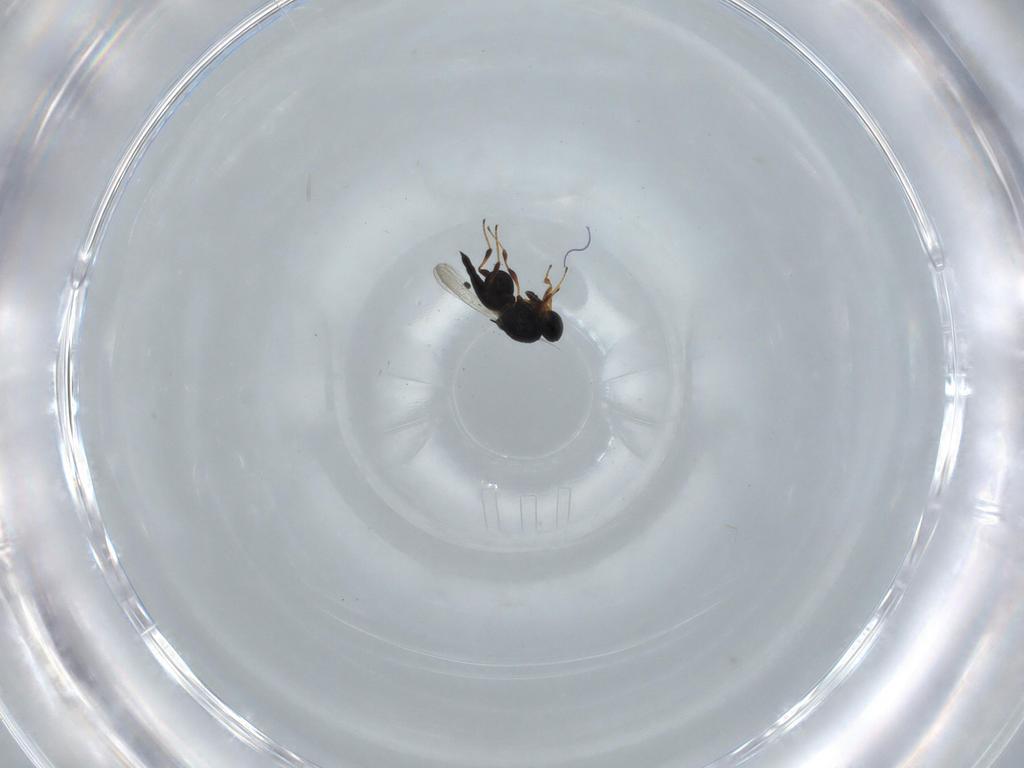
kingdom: Animalia
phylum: Arthropoda
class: Insecta
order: Hymenoptera
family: Platygastridae
